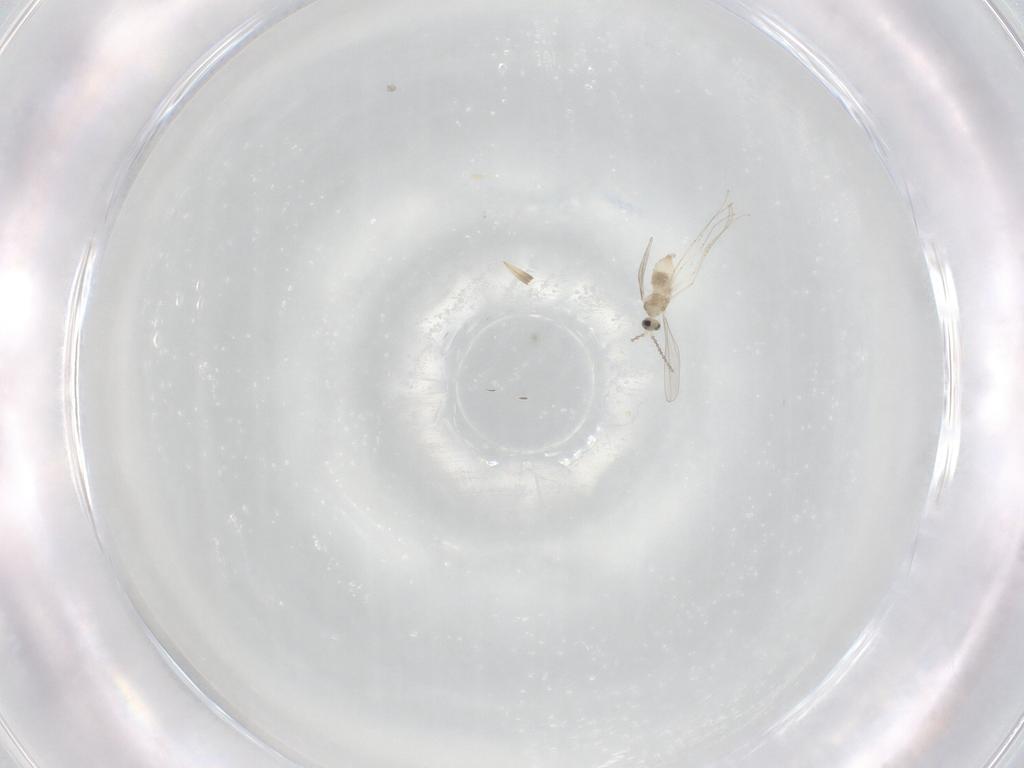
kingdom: Animalia
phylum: Arthropoda
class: Insecta
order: Diptera
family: Cecidomyiidae
